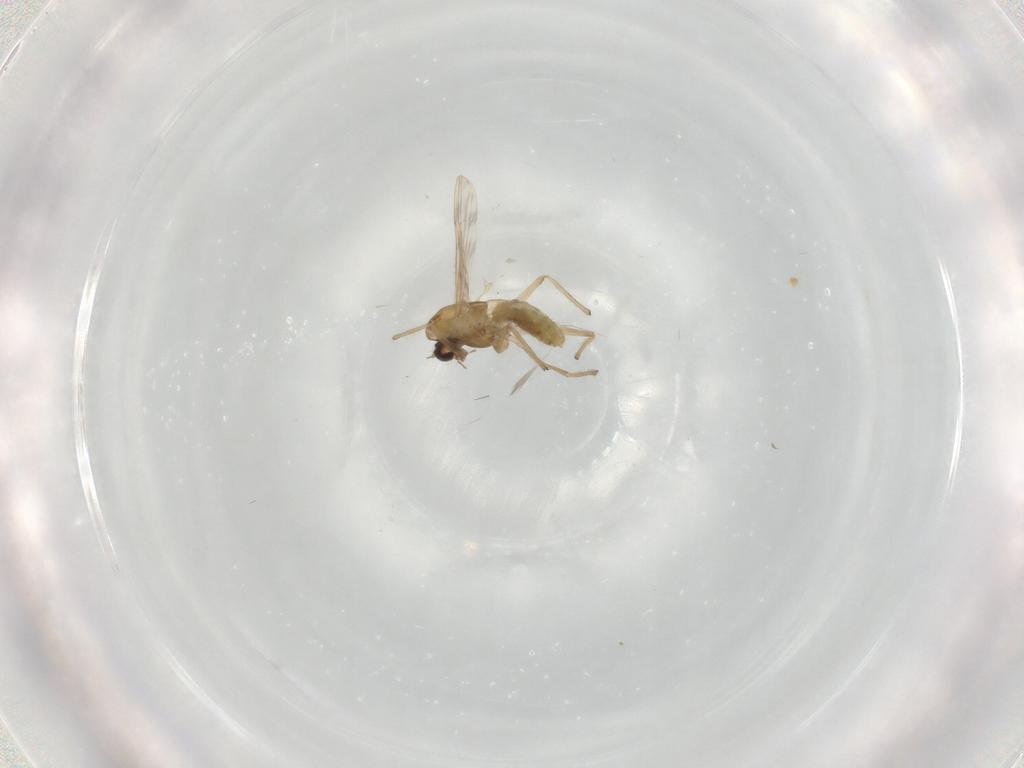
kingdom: Animalia
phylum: Arthropoda
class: Insecta
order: Diptera
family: Chironomidae
